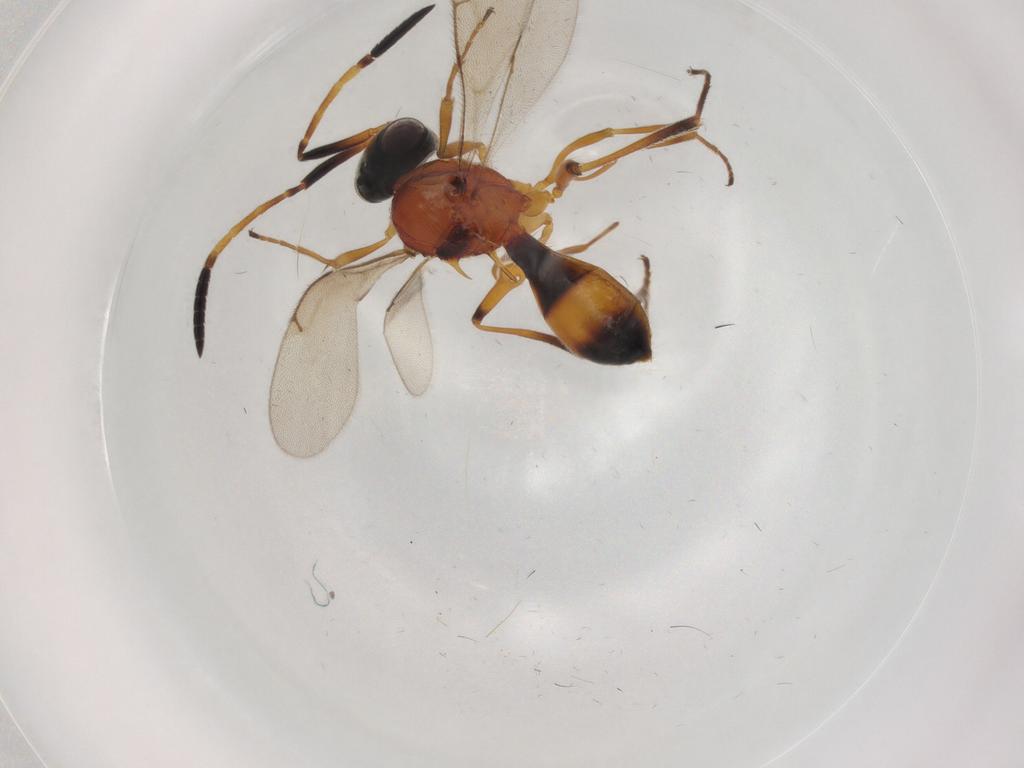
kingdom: Animalia
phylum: Arthropoda
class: Insecta
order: Hymenoptera
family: Scelionidae
